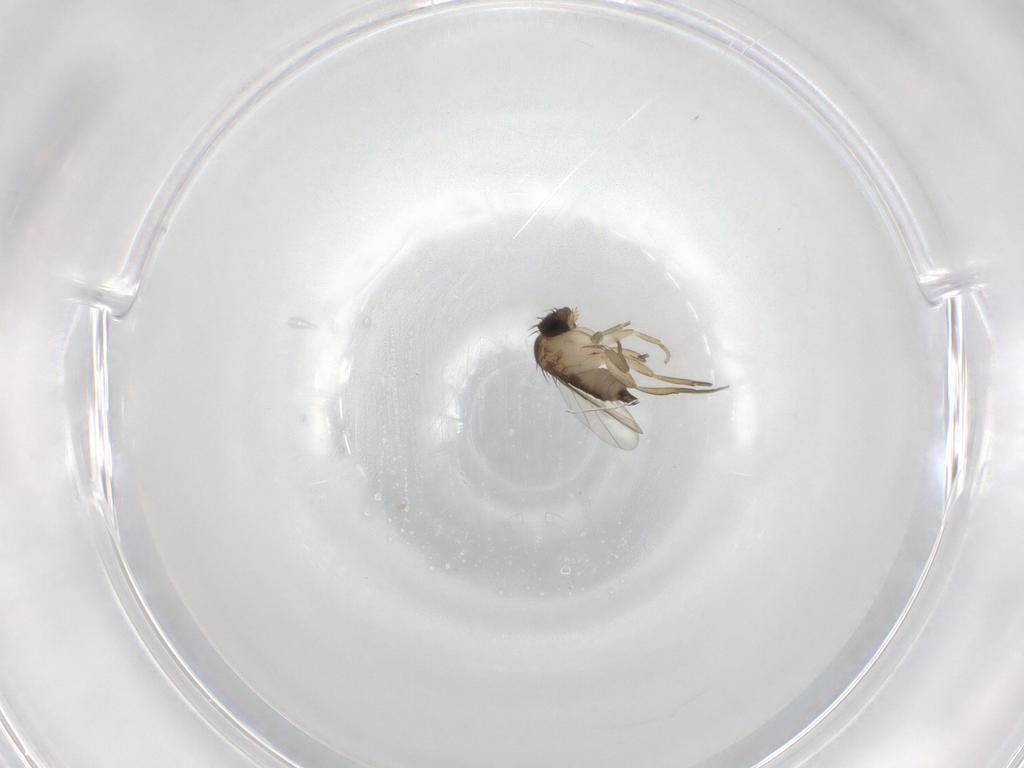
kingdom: Animalia
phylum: Arthropoda
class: Insecta
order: Diptera
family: Phoridae
